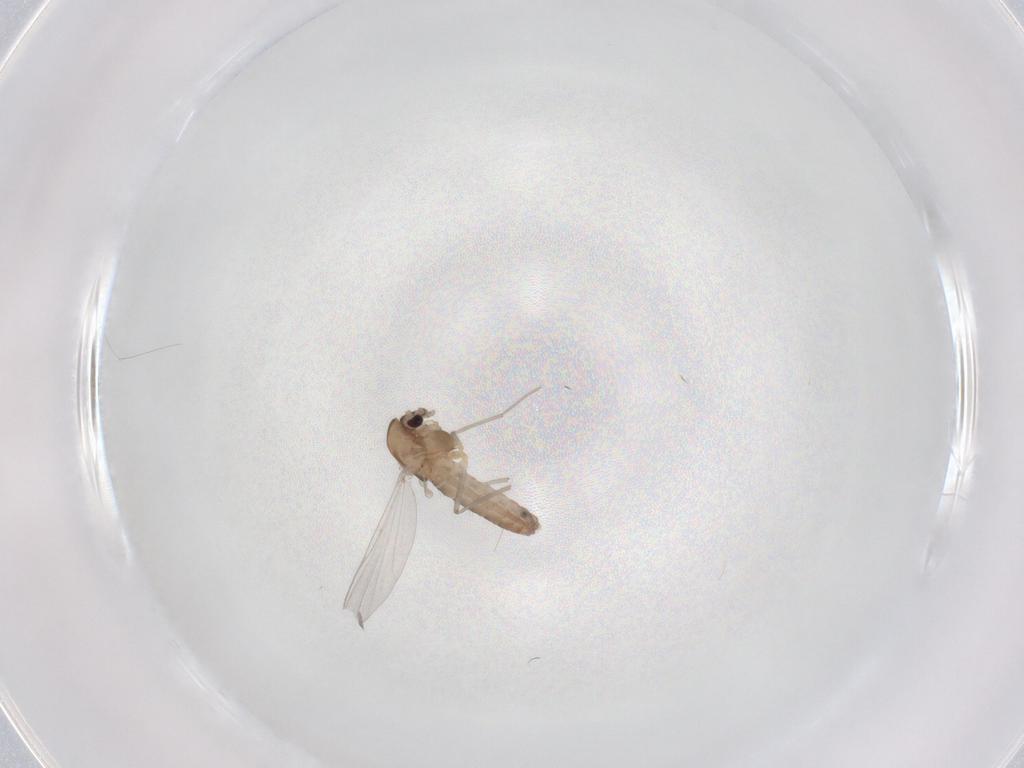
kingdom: Animalia
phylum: Arthropoda
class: Insecta
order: Diptera
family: Chironomidae
